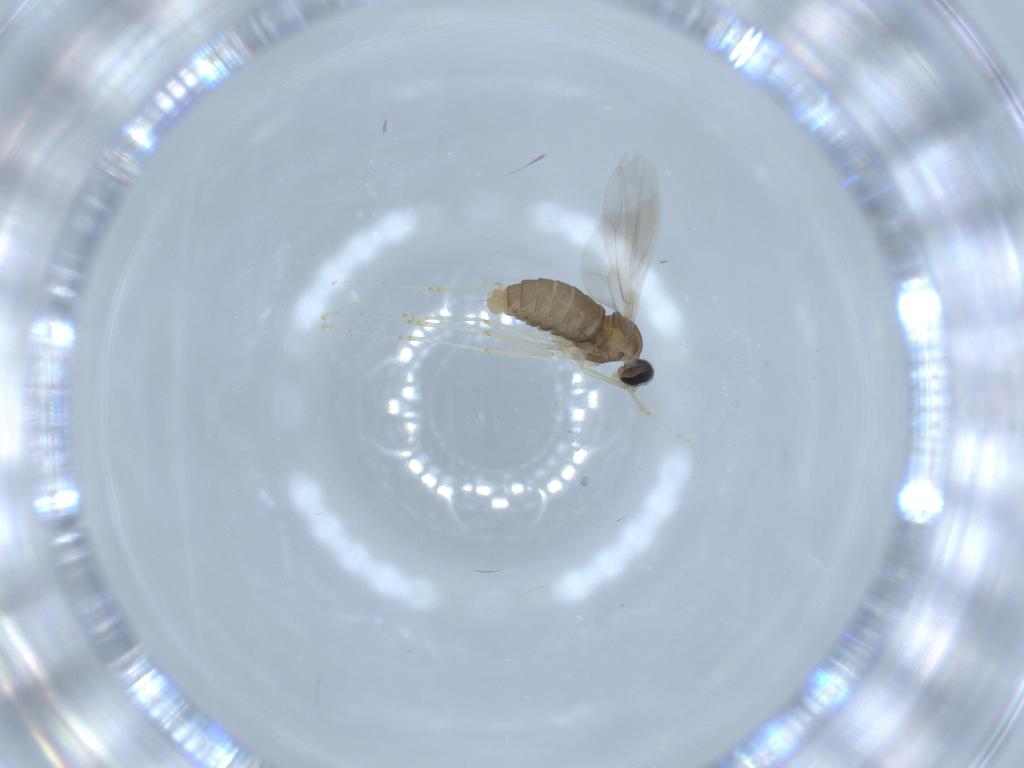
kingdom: Animalia
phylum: Arthropoda
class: Insecta
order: Diptera
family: Cecidomyiidae
